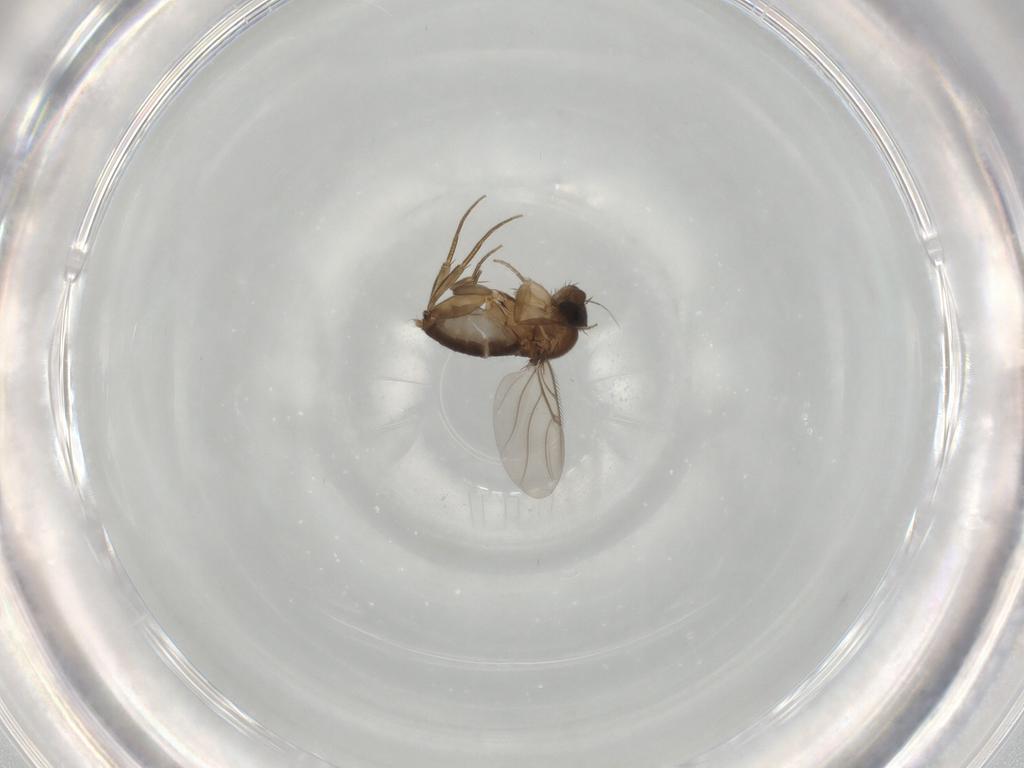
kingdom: Animalia
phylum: Arthropoda
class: Insecta
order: Diptera
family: Phoridae
